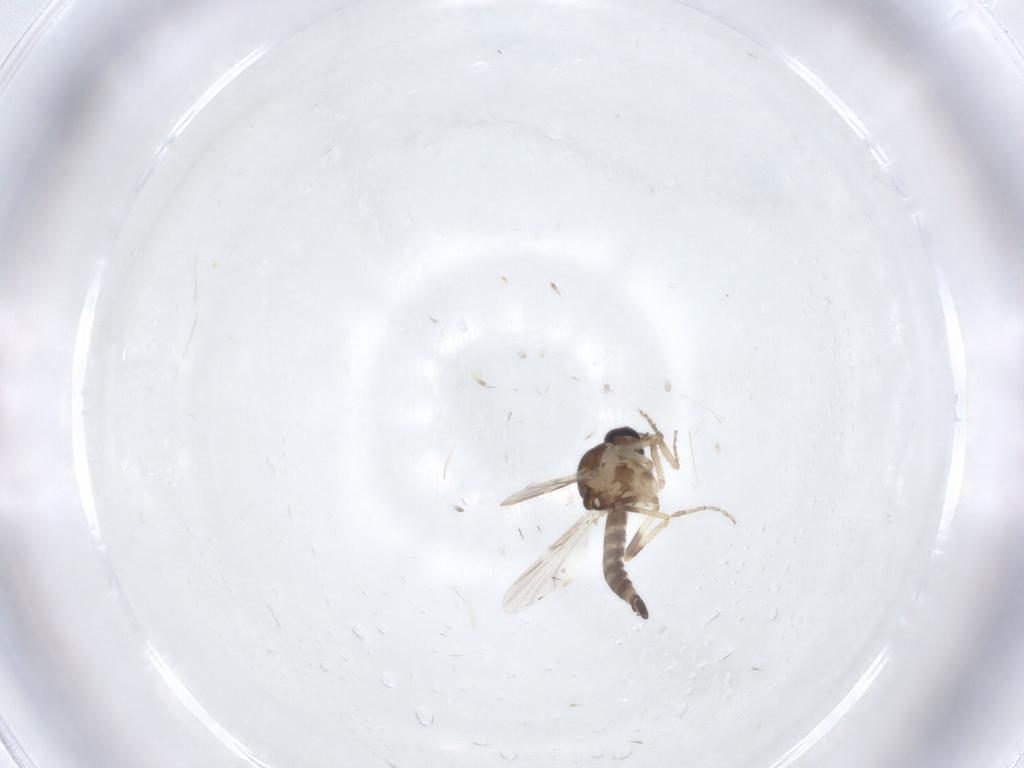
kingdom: Animalia
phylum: Arthropoda
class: Insecta
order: Diptera
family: Ceratopogonidae
